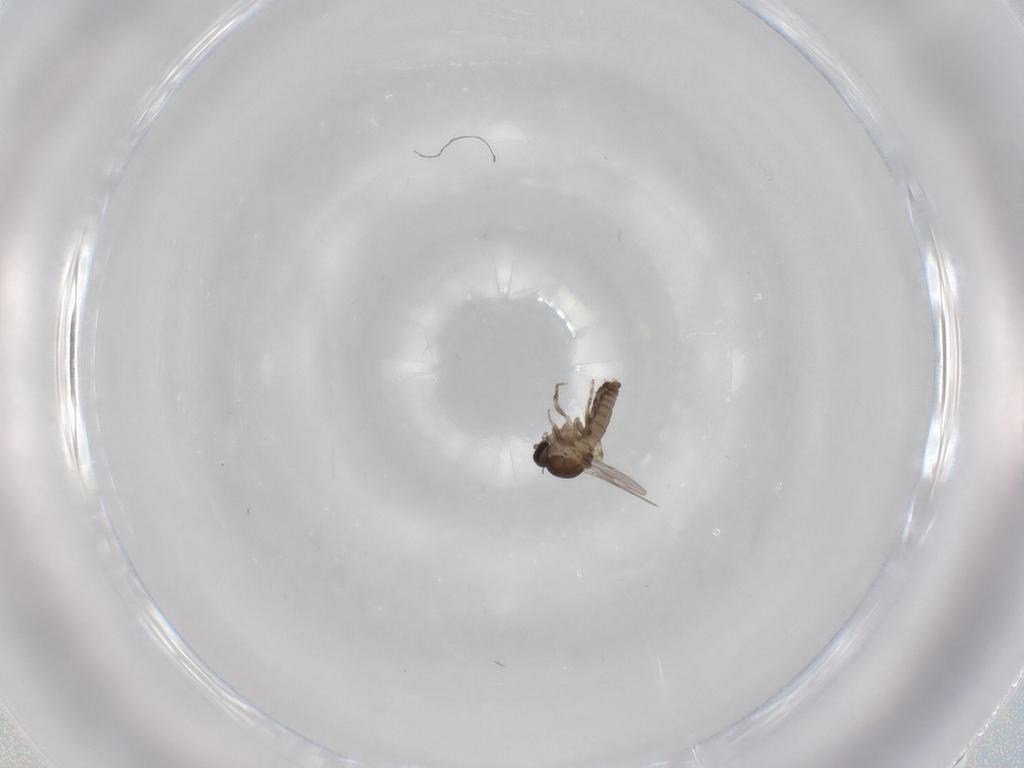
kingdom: Animalia
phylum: Arthropoda
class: Insecta
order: Diptera
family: Ceratopogonidae
